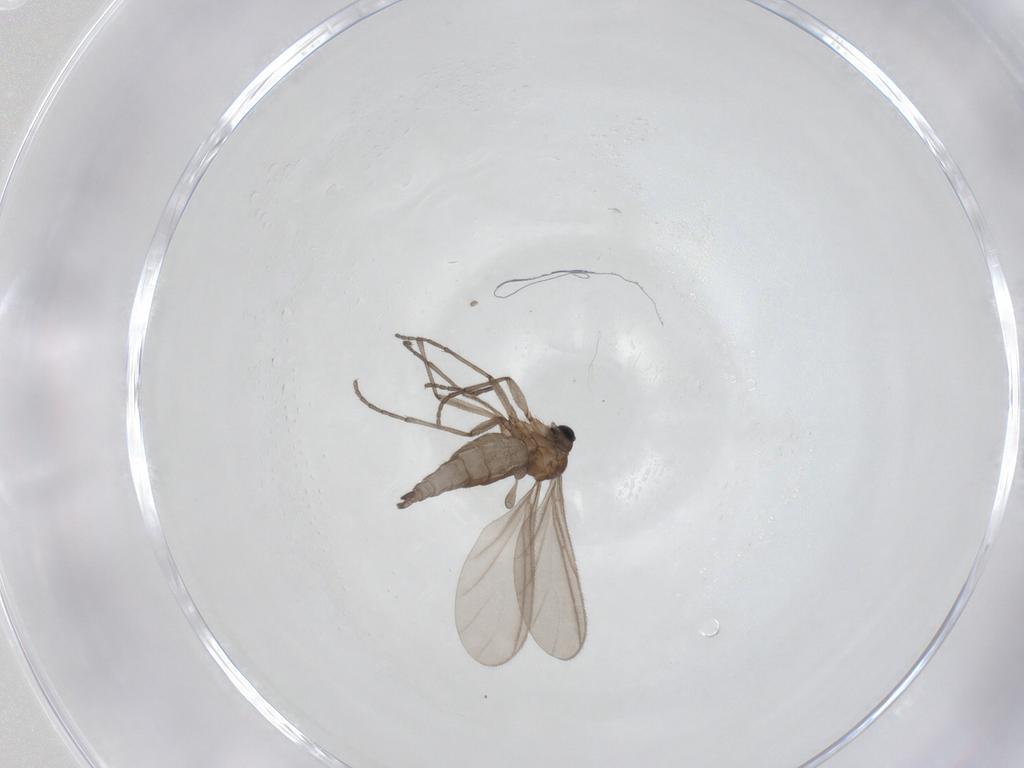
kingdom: Animalia
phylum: Arthropoda
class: Insecta
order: Diptera
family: Sciaridae
